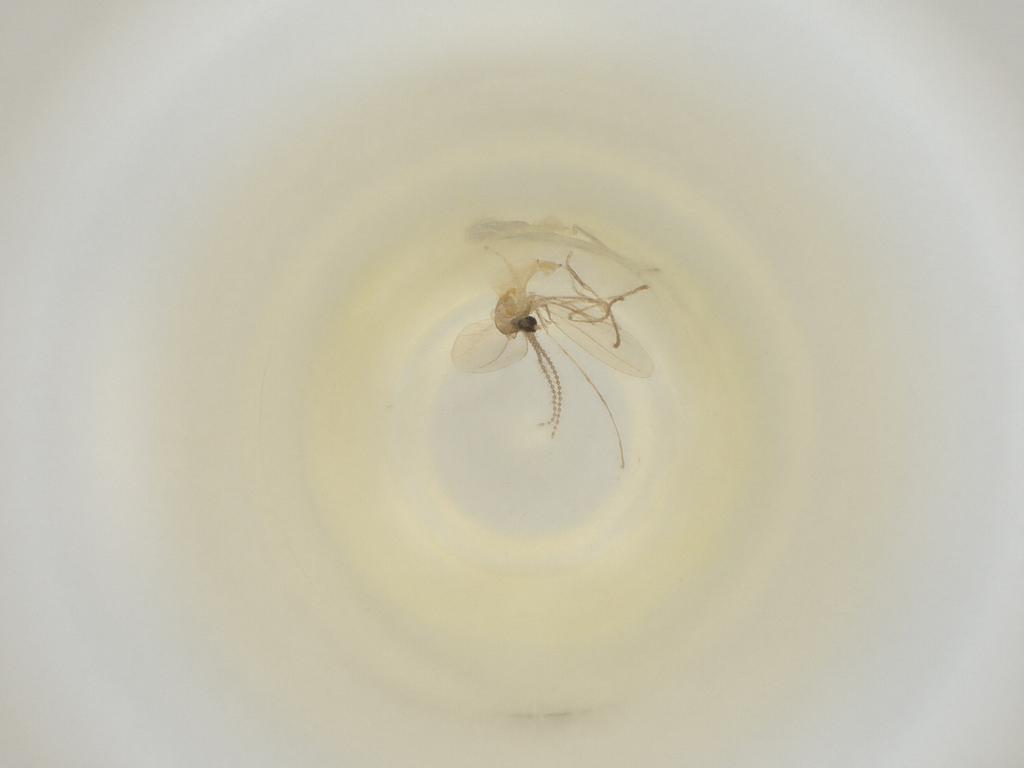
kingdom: Animalia
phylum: Arthropoda
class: Insecta
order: Diptera
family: Cecidomyiidae
